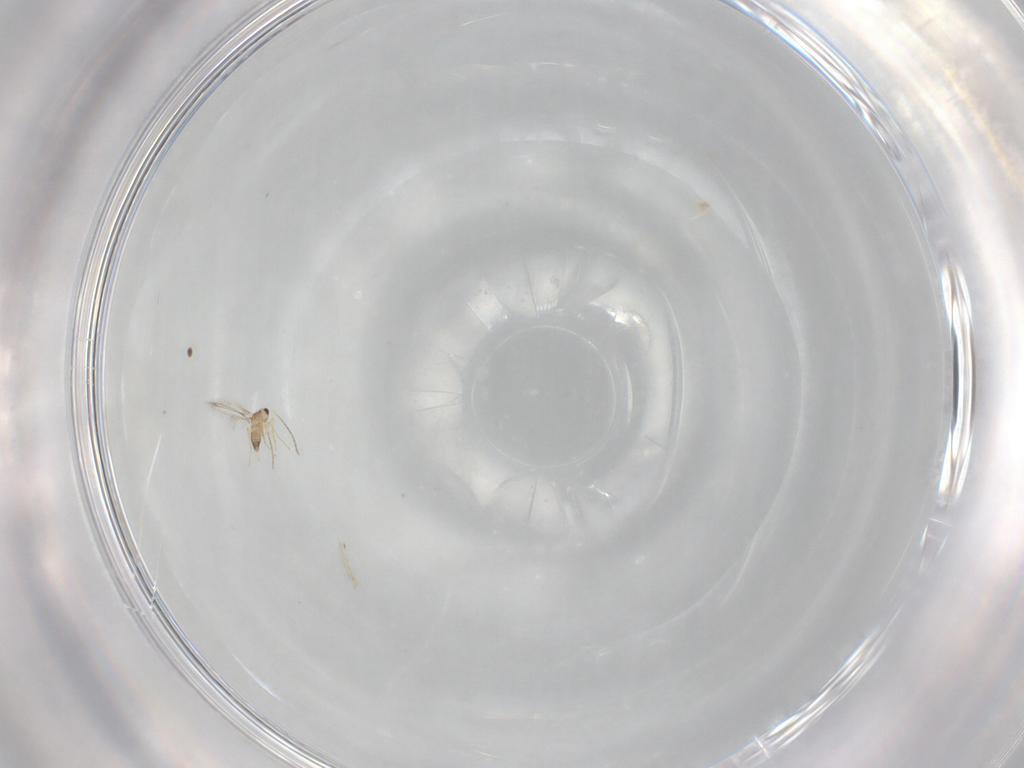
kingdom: Animalia
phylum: Arthropoda
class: Insecta
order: Hymenoptera
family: Mymaridae
